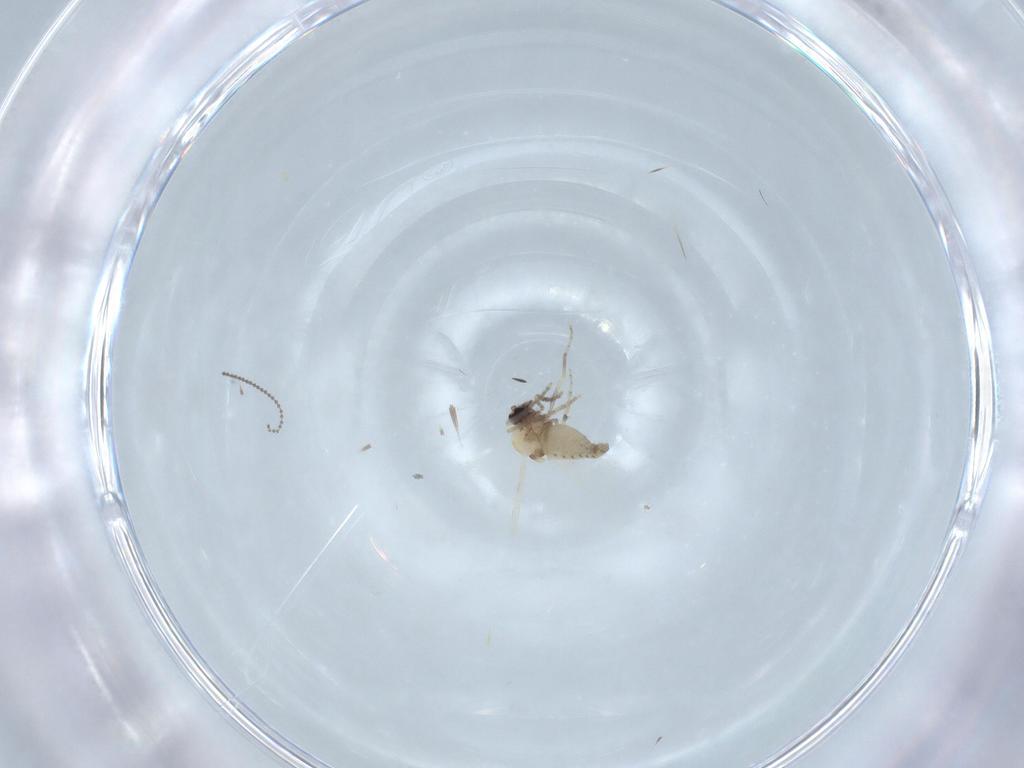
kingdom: Animalia
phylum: Arthropoda
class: Insecta
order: Diptera
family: Ceratopogonidae
